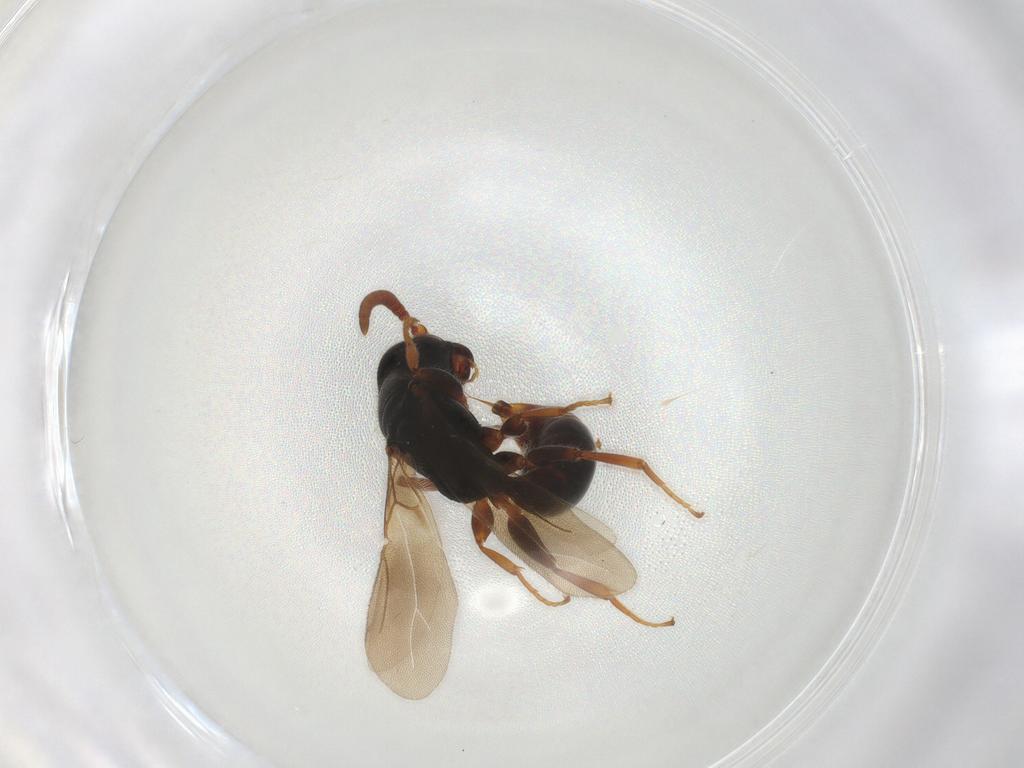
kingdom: Animalia
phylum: Arthropoda
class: Insecta
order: Hymenoptera
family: Bethylidae
